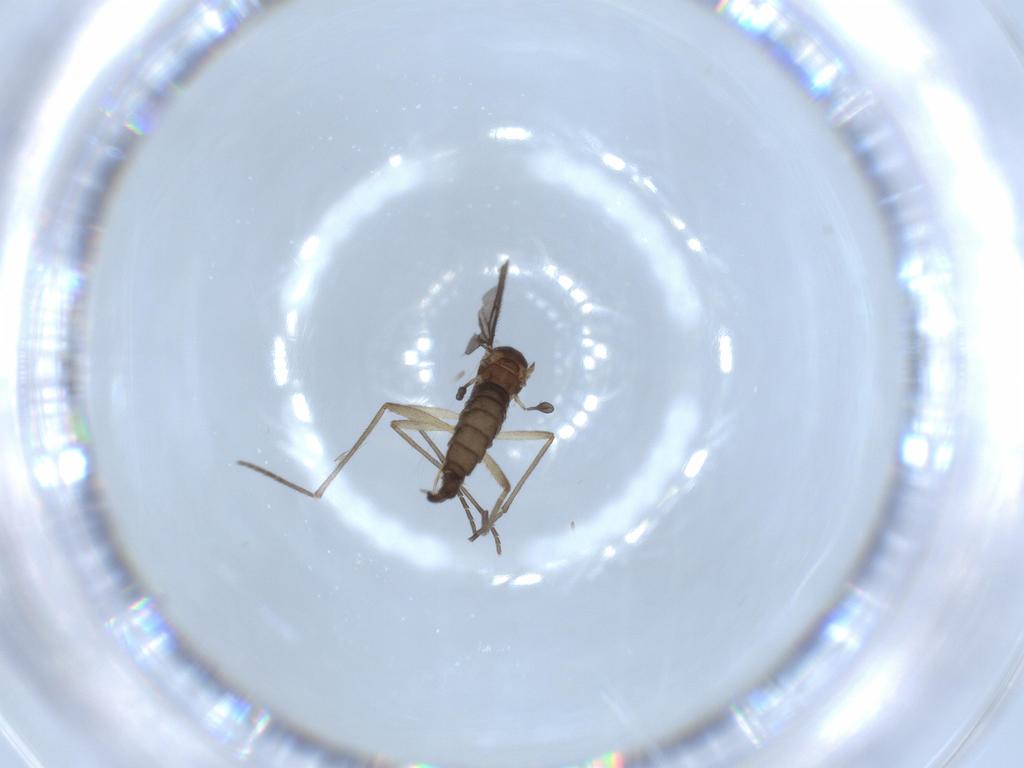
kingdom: Animalia
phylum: Arthropoda
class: Insecta
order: Diptera
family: Sciaridae
